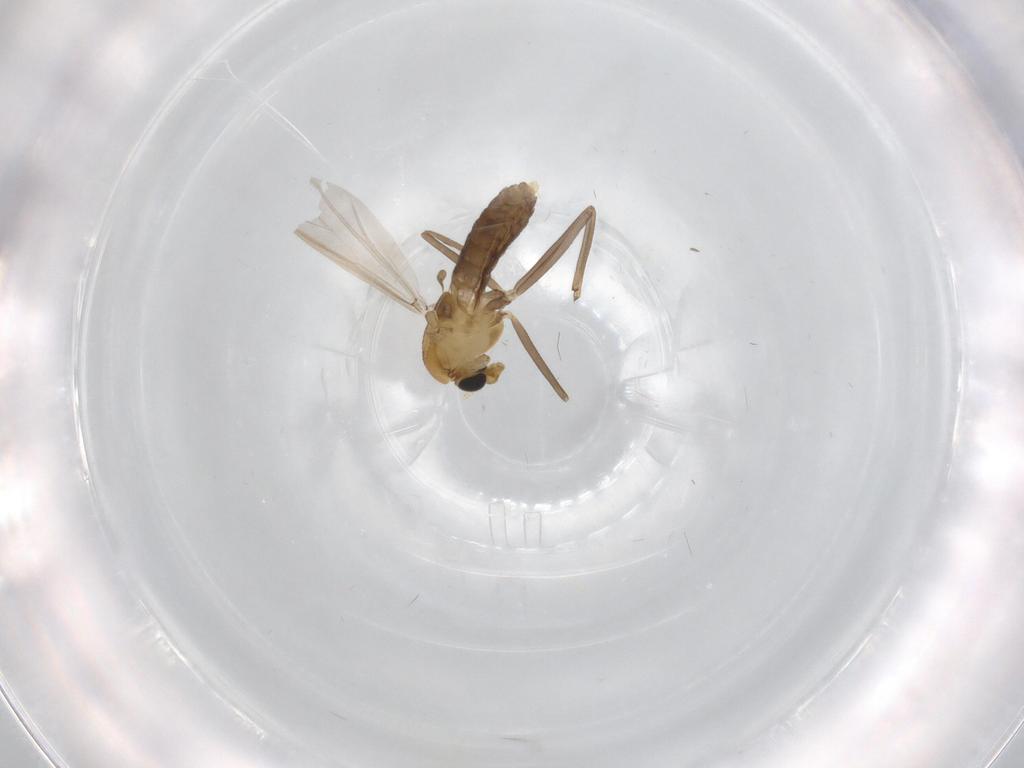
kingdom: Animalia
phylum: Arthropoda
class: Insecta
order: Diptera
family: Chironomidae
